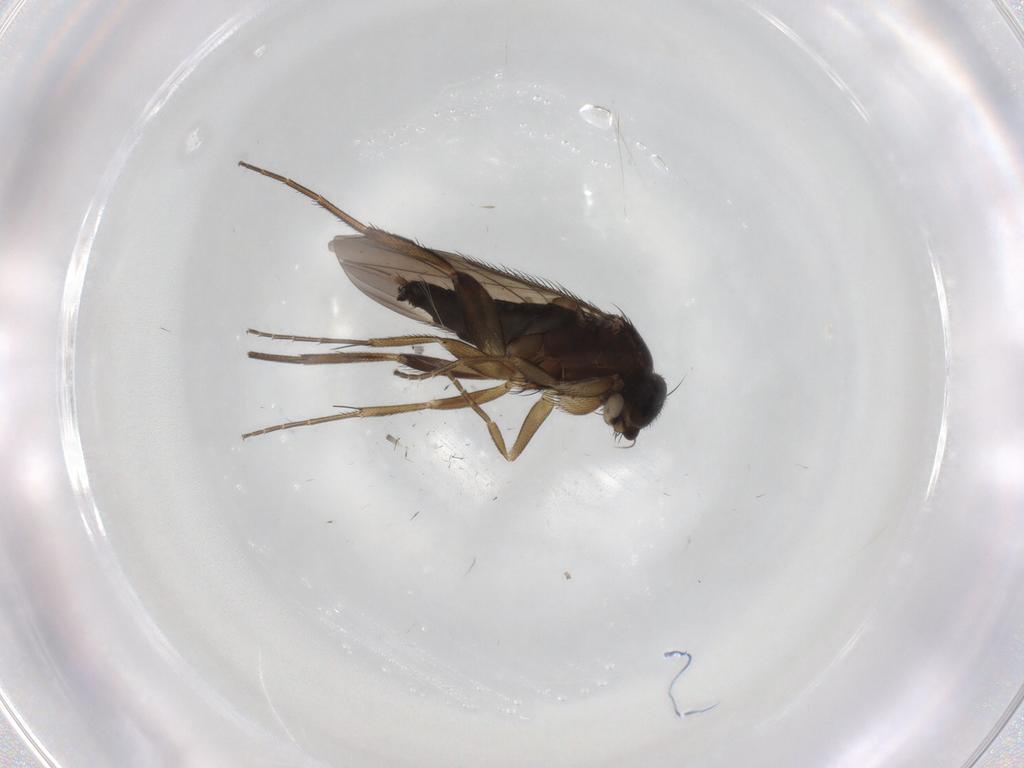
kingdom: Animalia
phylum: Arthropoda
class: Insecta
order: Diptera
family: Phoridae
